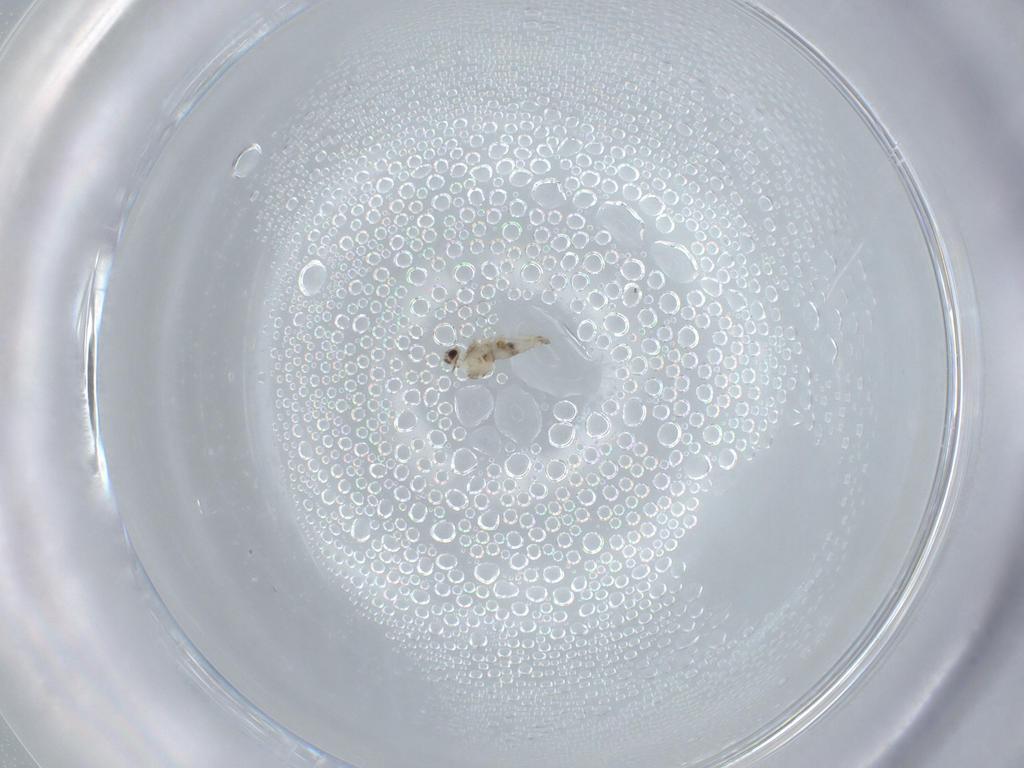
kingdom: Animalia
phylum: Arthropoda
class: Insecta
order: Diptera
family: Cecidomyiidae
